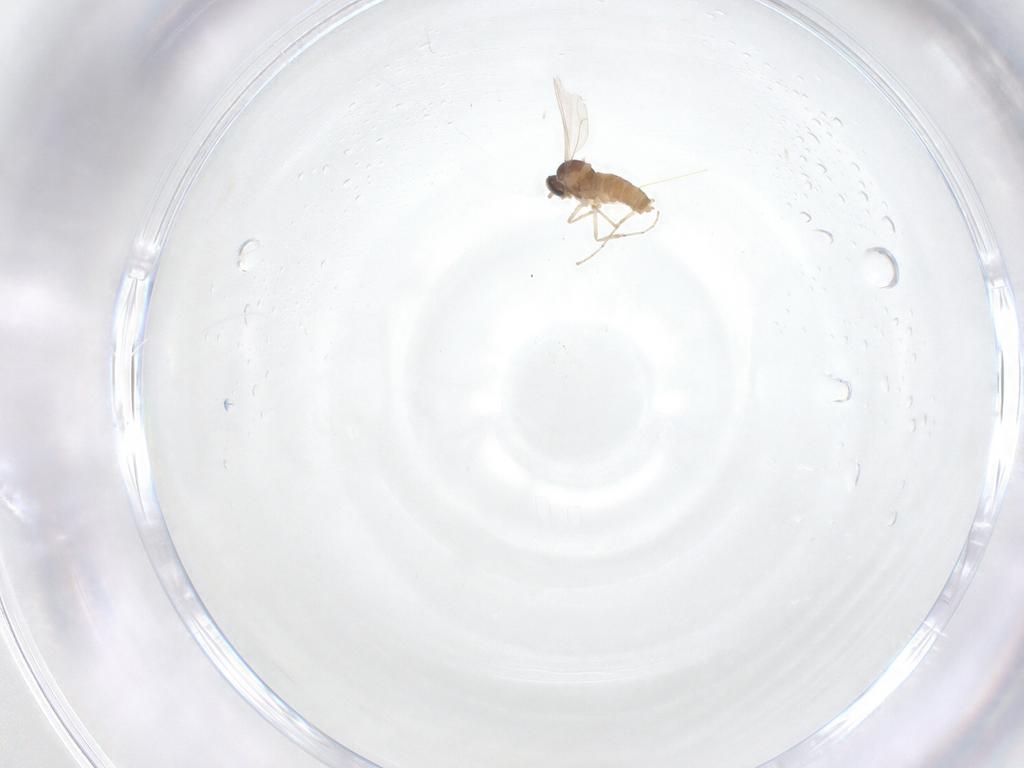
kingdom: Animalia
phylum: Arthropoda
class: Insecta
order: Diptera
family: Cecidomyiidae
